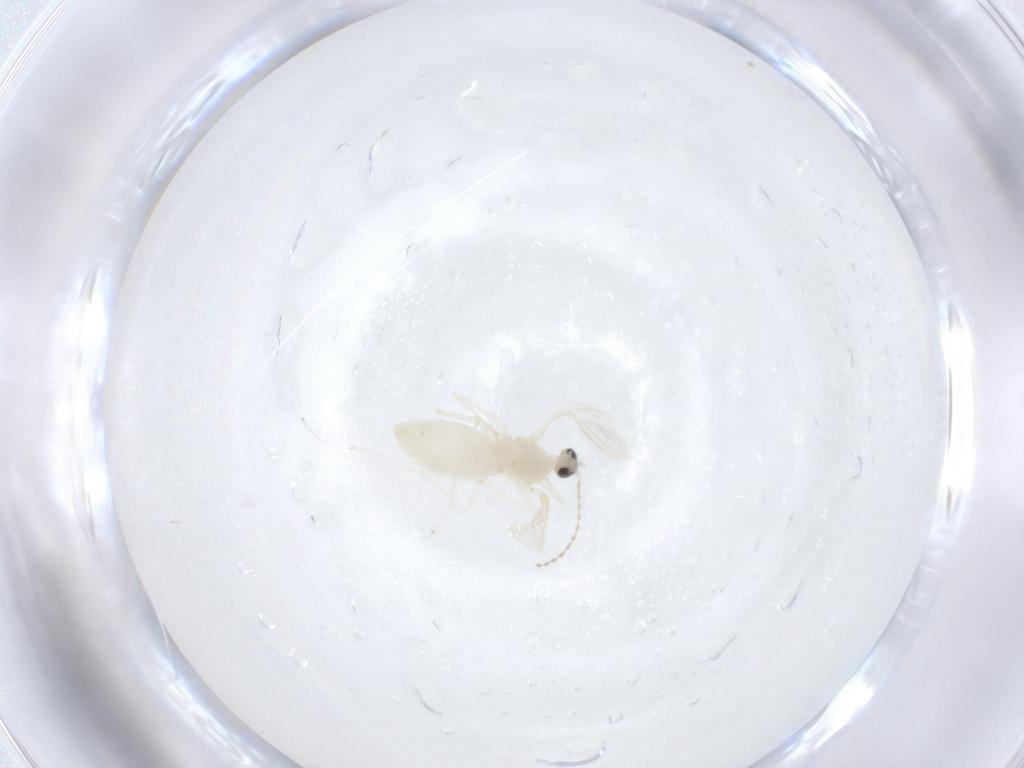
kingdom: Animalia
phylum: Arthropoda
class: Insecta
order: Diptera
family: Cecidomyiidae
